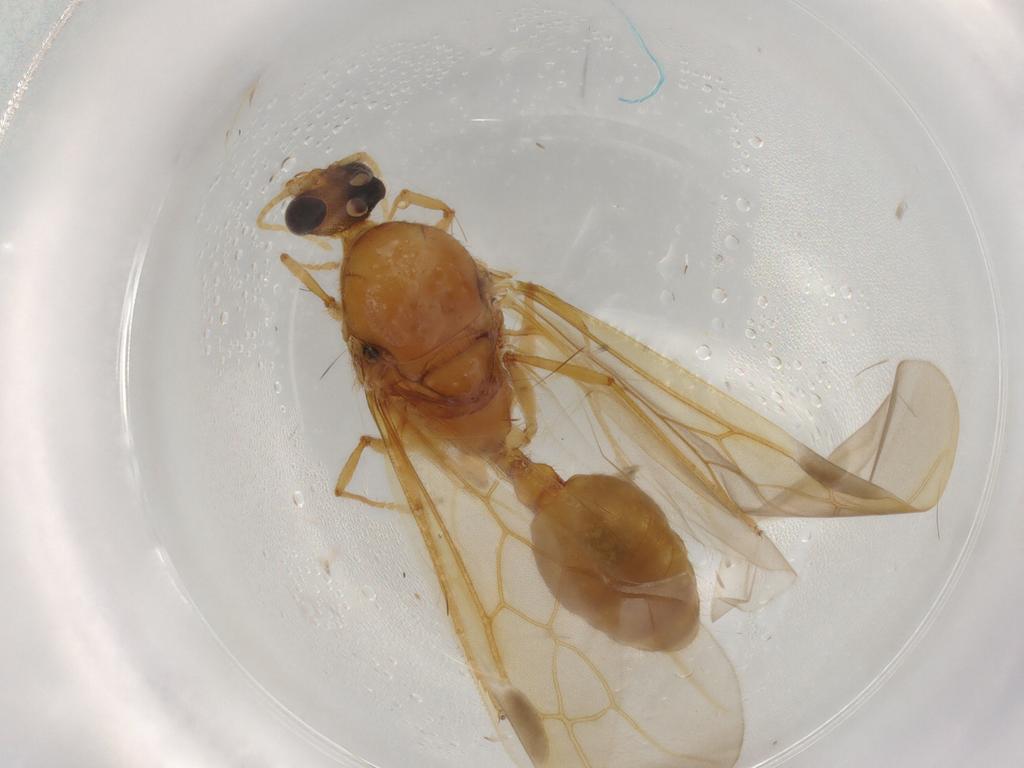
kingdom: Animalia
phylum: Arthropoda
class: Insecta
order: Hymenoptera
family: Formicidae
